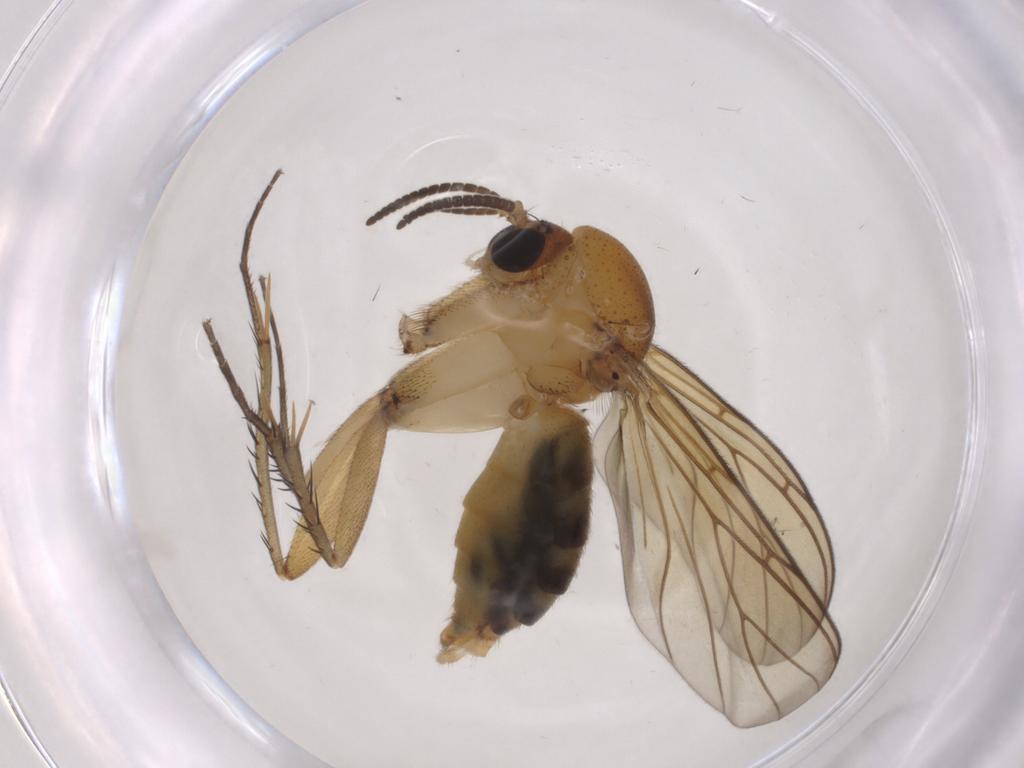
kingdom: Animalia
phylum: Arthropoda
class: Insecta
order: Diptera
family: Mycetophilidae
